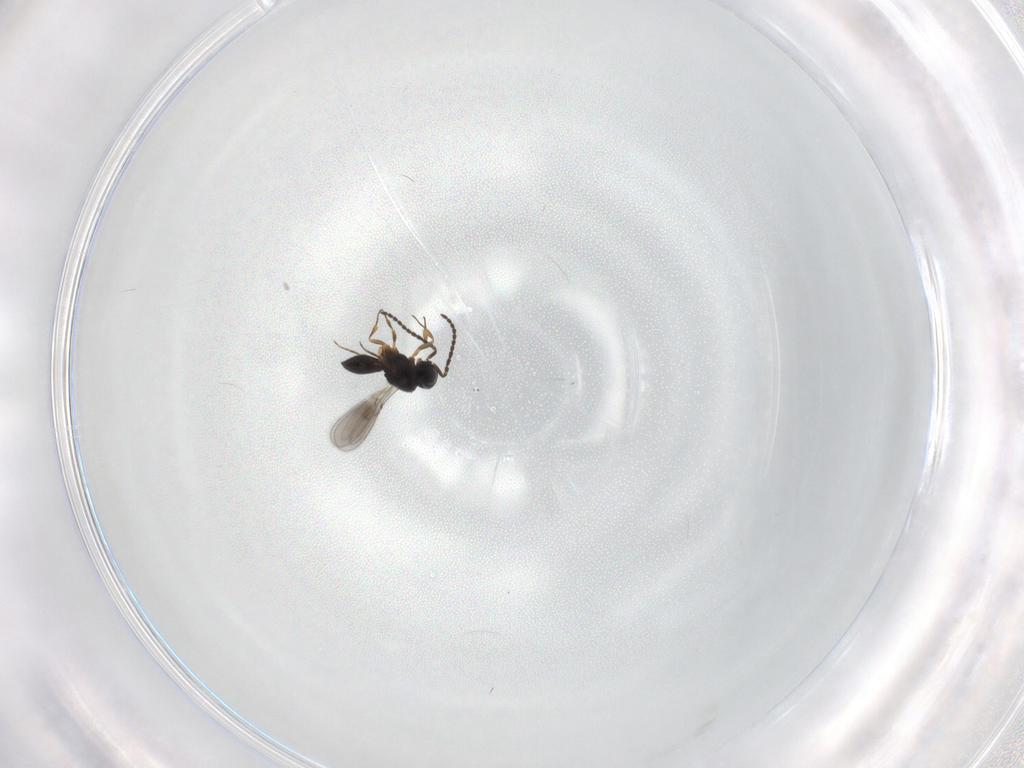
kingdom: Animalia
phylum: Arthropoda
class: Insecta
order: Hymenoptera
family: Scelionidae
